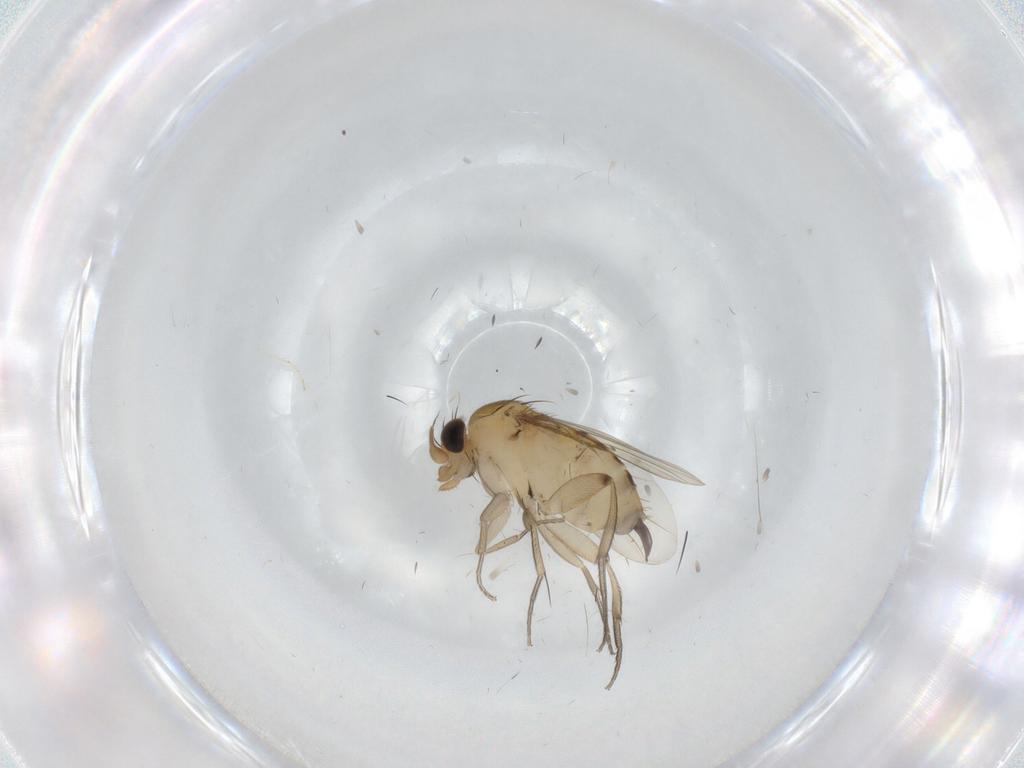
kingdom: Animalia
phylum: Arthropoda
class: Insecta
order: Diptera
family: Phoridae
